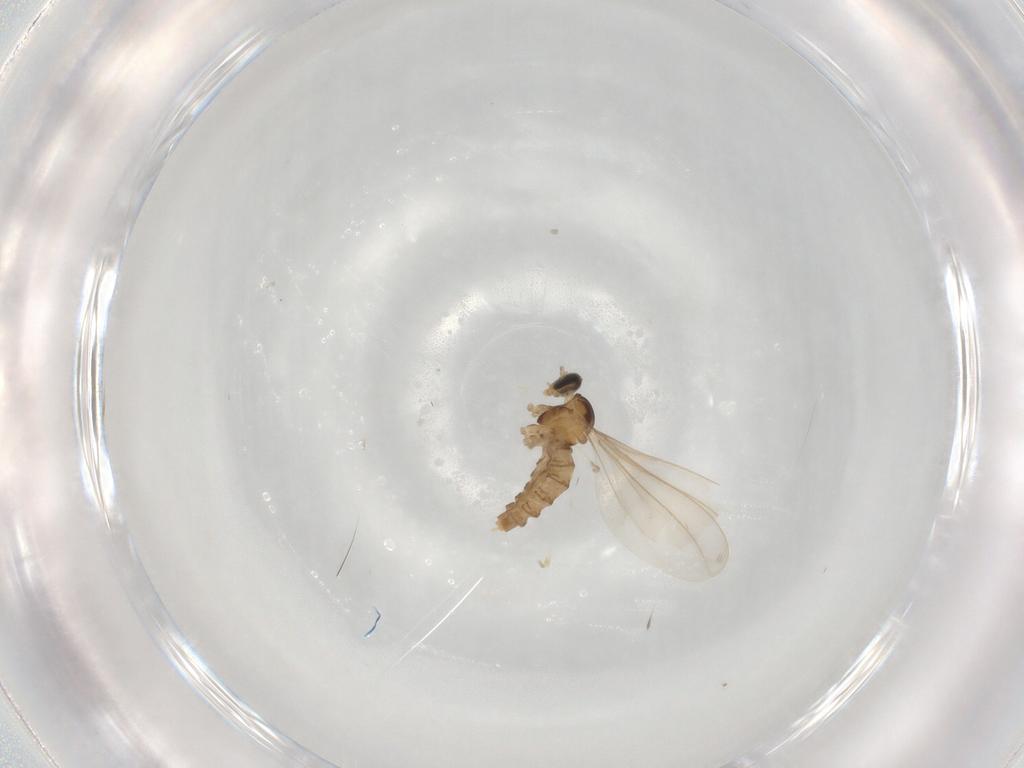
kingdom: Animalia
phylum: Arthropoda
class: Insecta
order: Diptera
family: Cecidomyiidae
